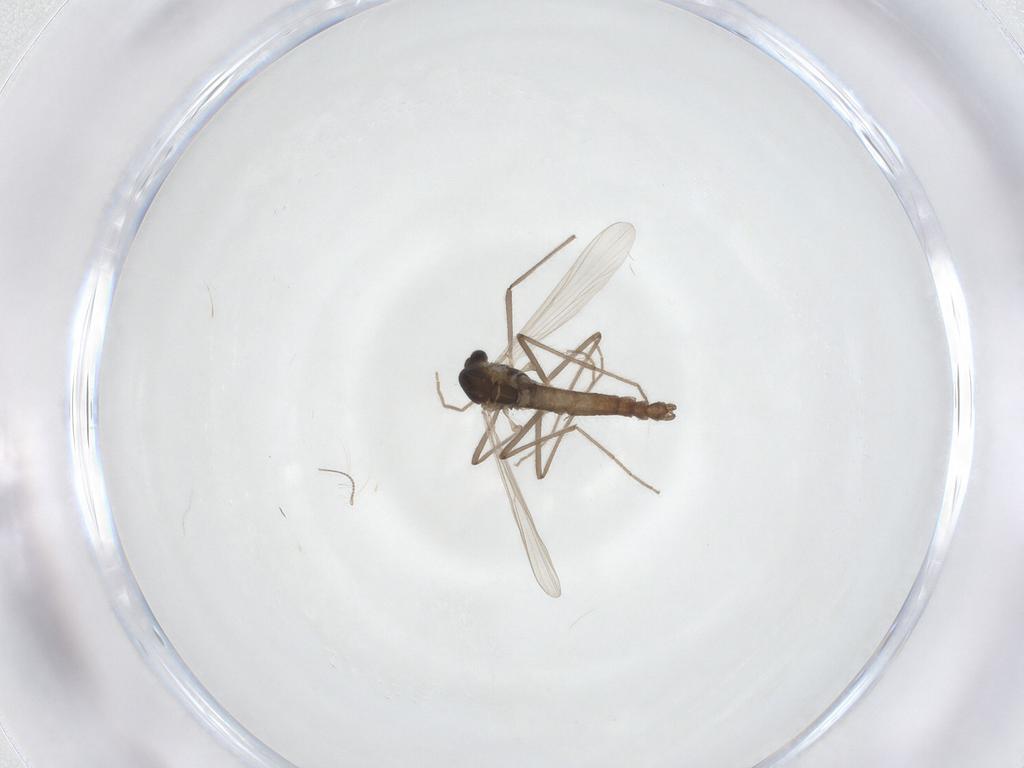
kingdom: Animalia
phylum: Arthropoda
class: Insecta
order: Diptera
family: Chironomidae
